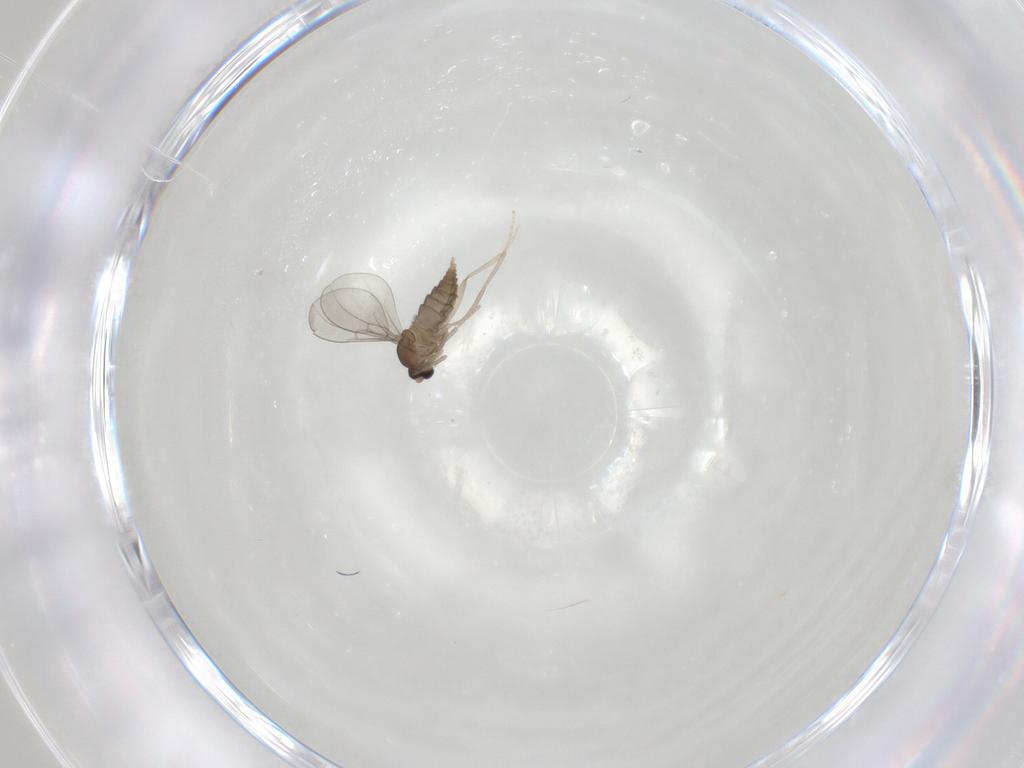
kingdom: Animalia
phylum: Arthropoda
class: Insecta
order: Diptera
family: Cecidomyiidae
